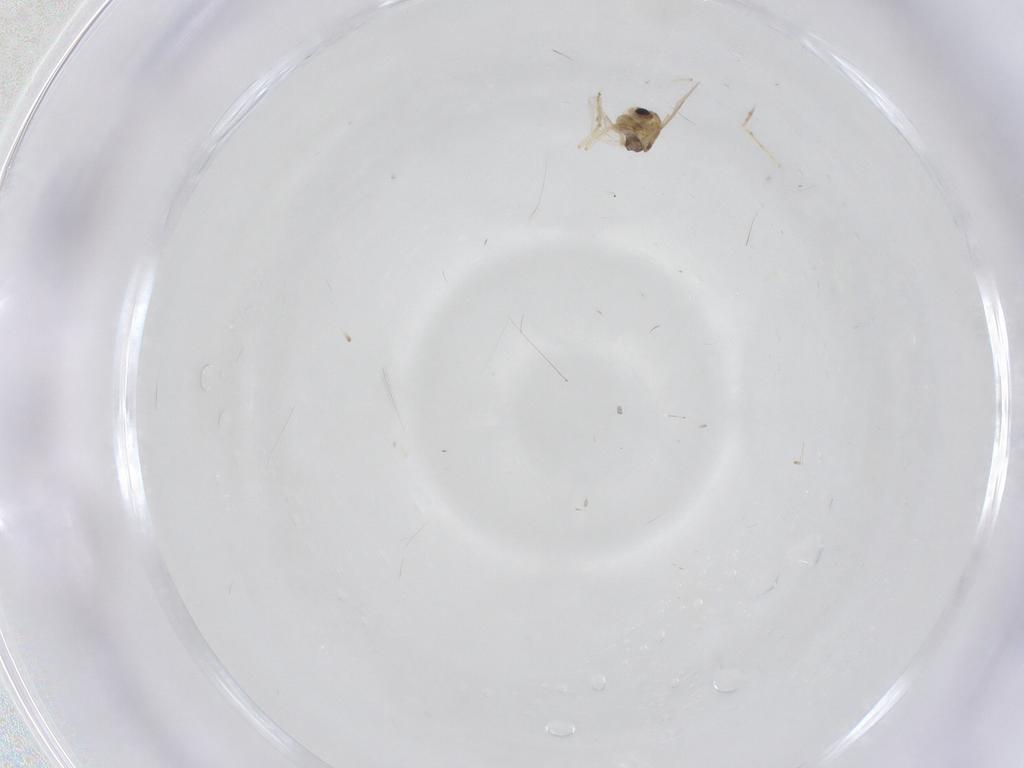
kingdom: Animalia
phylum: Arthropoda
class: Insecta
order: Diptera
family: Chironomidae
